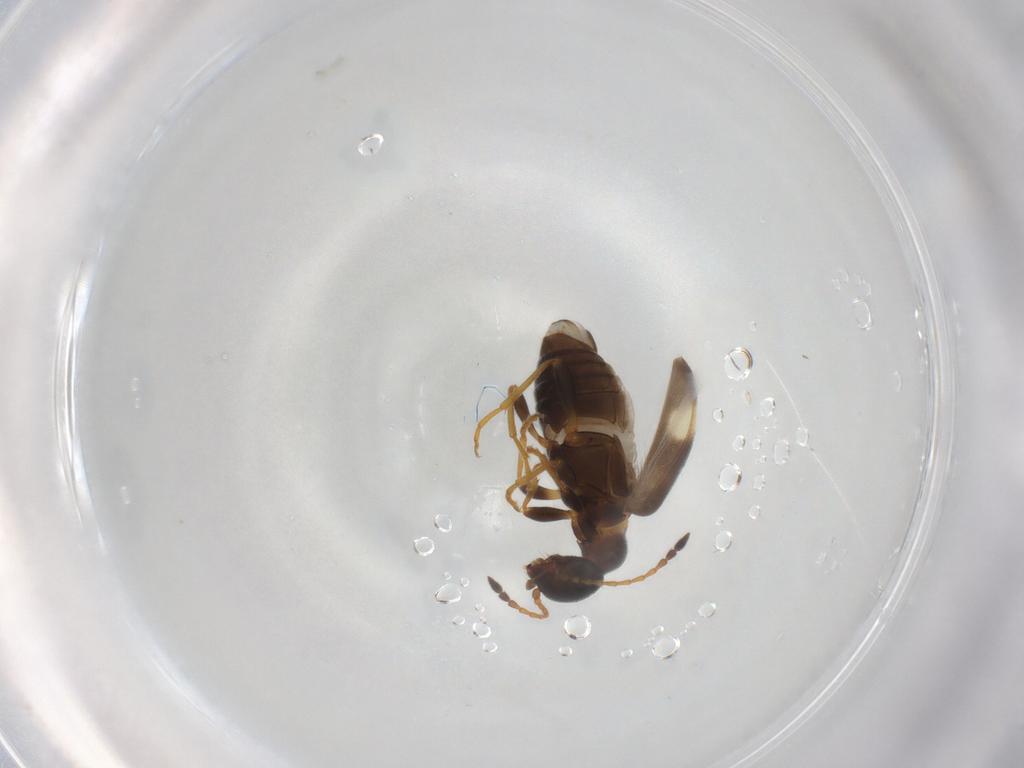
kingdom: Animalia
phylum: Arthropoda
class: Insecta
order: Coleoptera
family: Anthicidae
